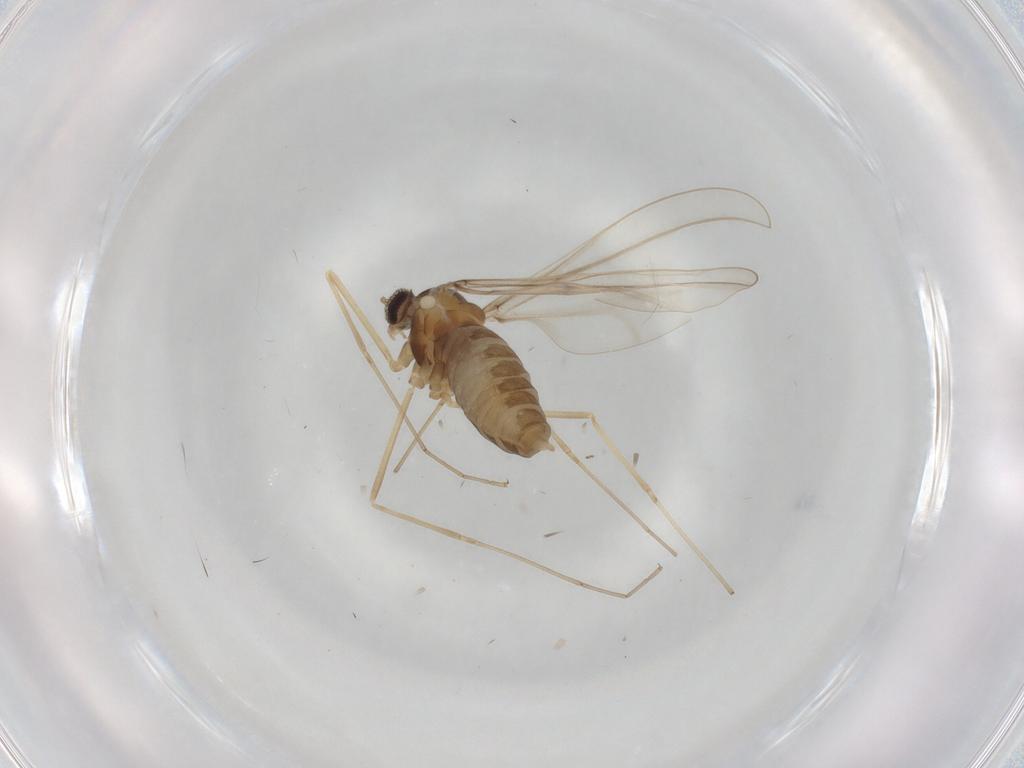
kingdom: Animalia
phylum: Arthropoda
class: Insecta
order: Diptera
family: Cecidomyiidae
